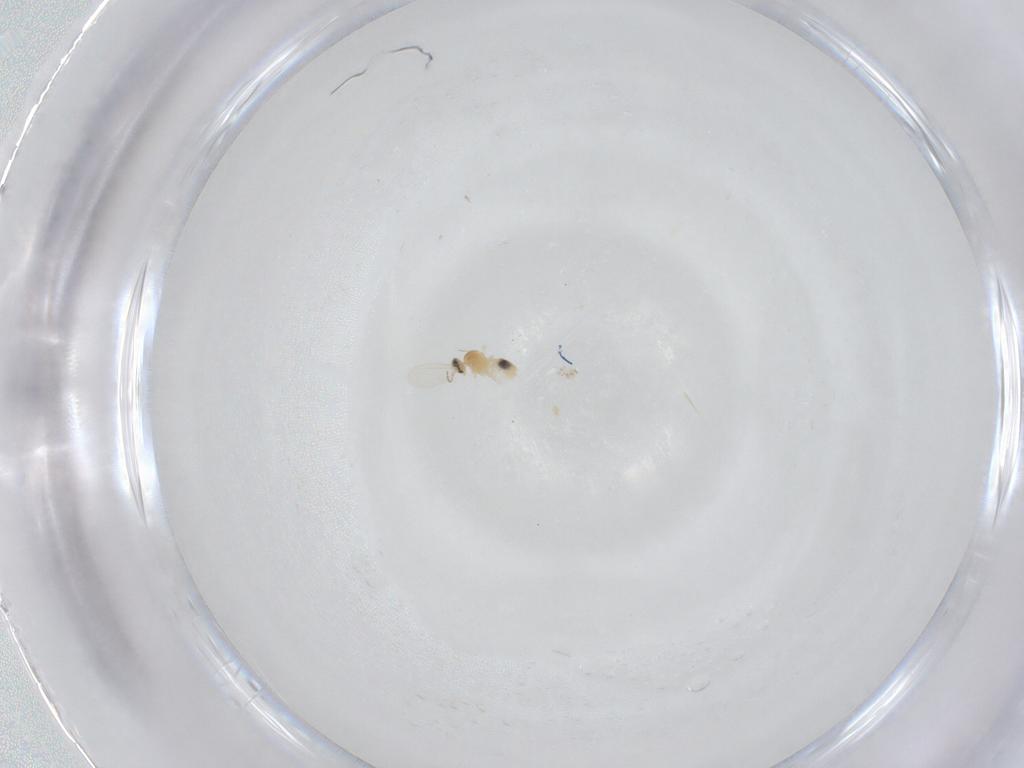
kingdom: Animalia
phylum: Arthropoda
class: Insecta
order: Diptera
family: Cecidomyiidae
